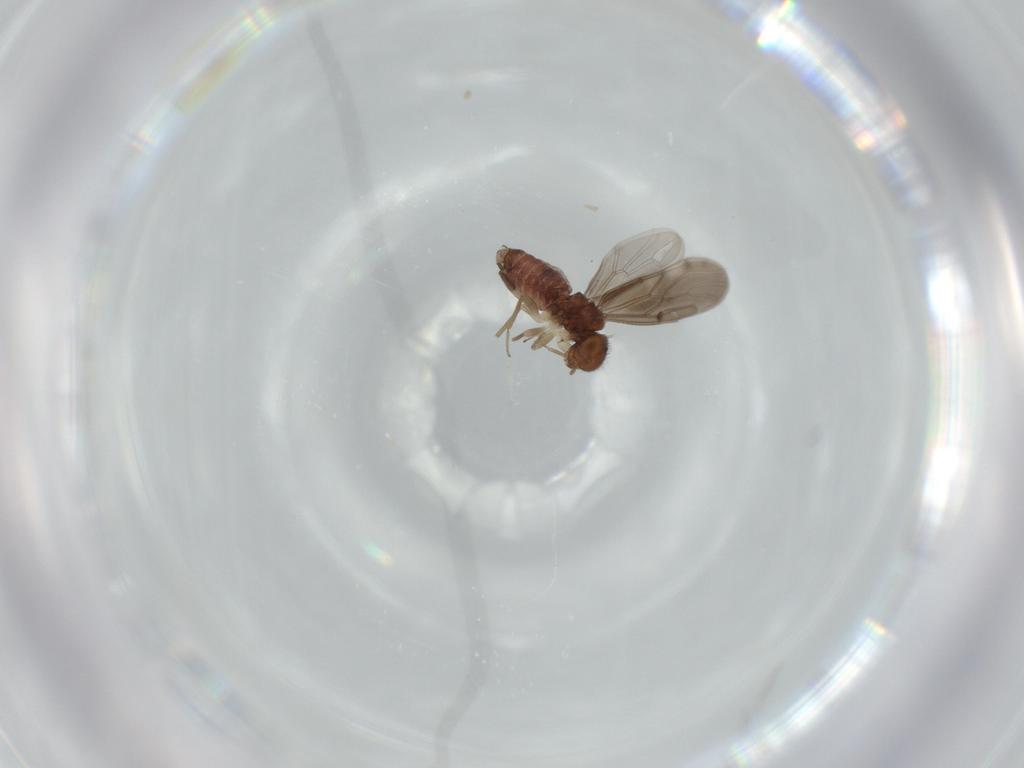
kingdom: Animalia
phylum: Arthropoda
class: Insecta
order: Psocodea
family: Ectopsocidae
